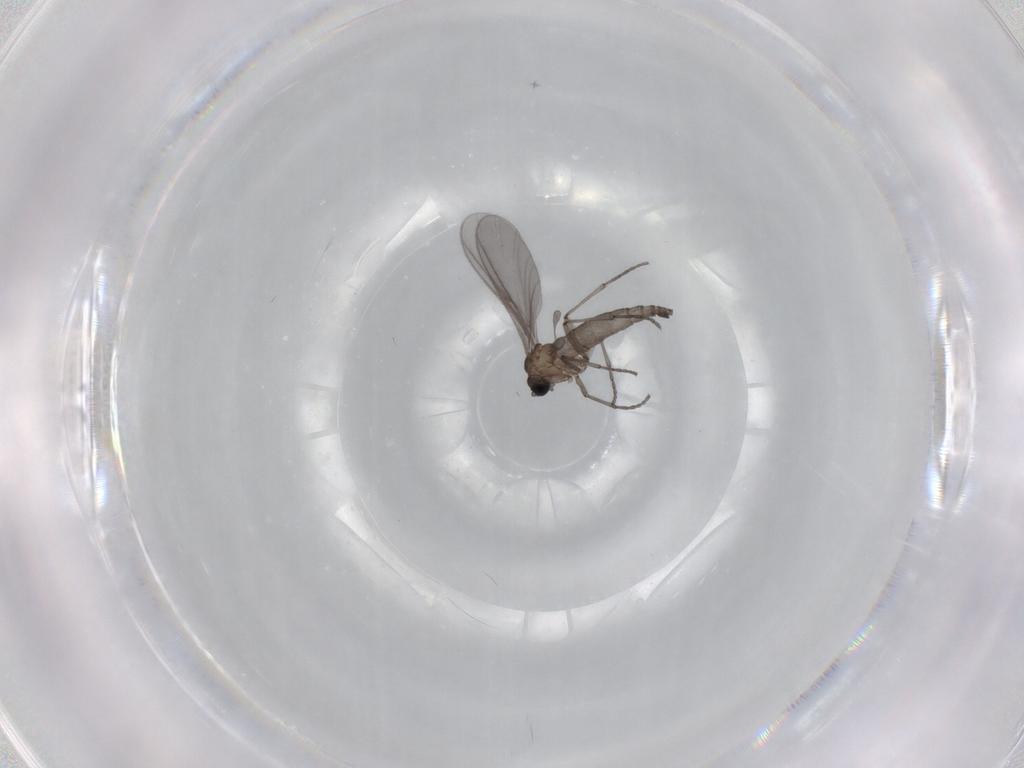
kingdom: Animalia
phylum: Arthropoda
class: Insecta
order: Diptera
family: Sciaridae
